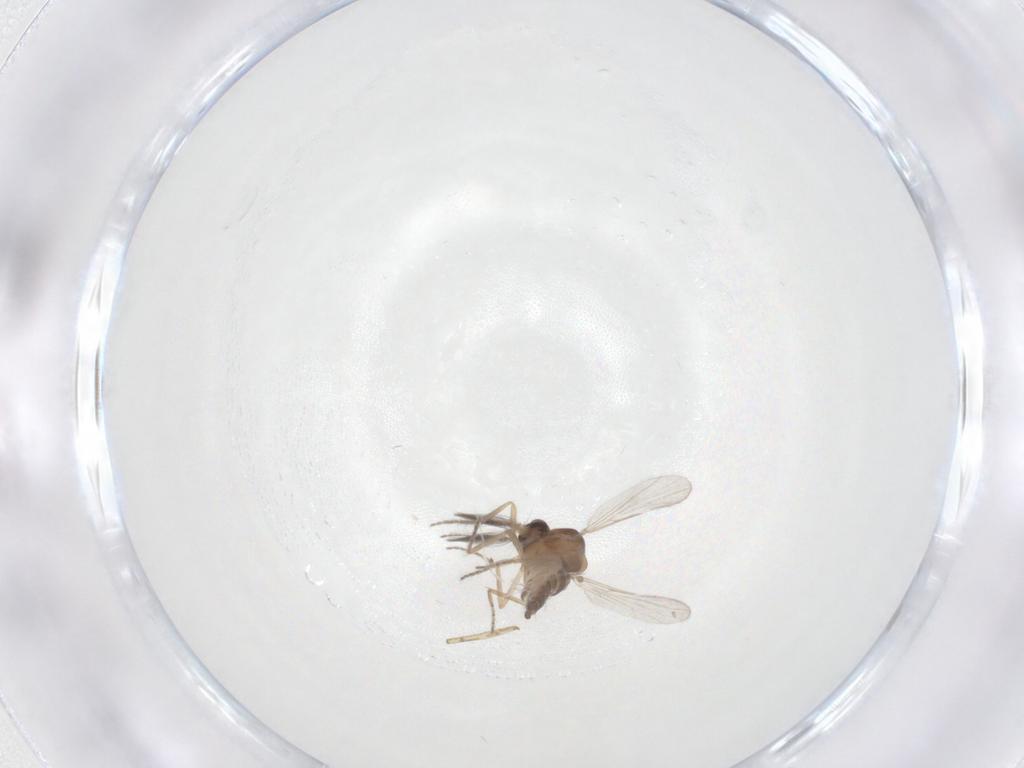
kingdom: Animalia
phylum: Arthropoda
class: Insecta
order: Diptera
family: Ceratopogonidae
